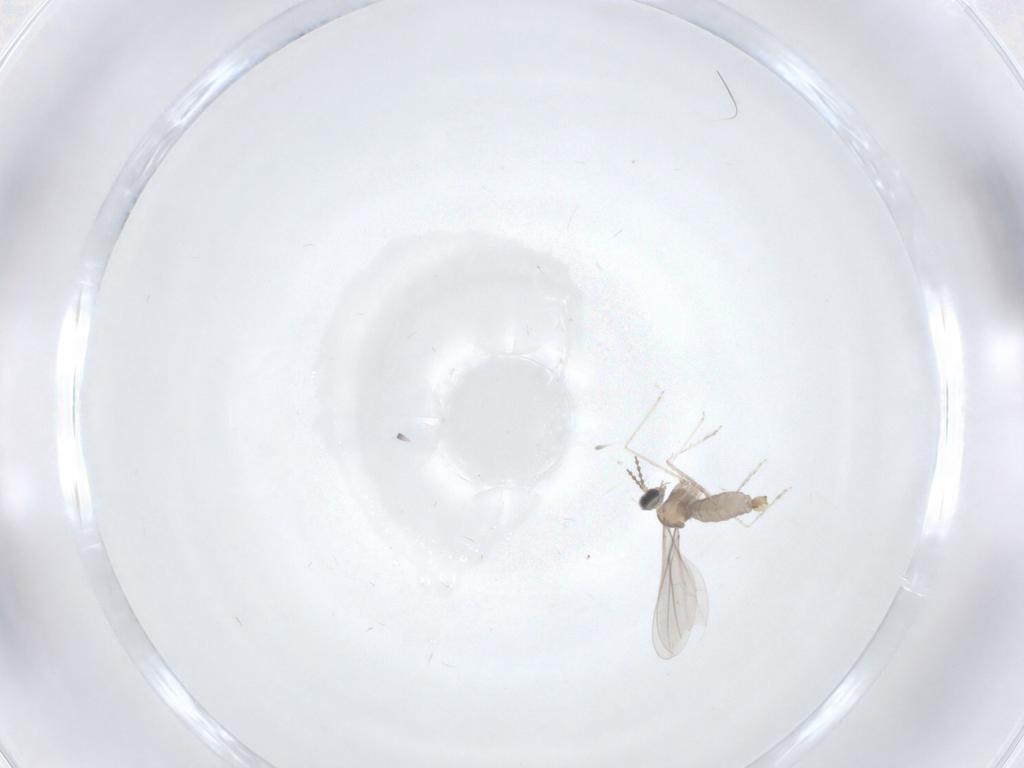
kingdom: Animalia
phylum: Arthropoda
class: Insecta
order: Diptera
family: Cecidomyiidae
